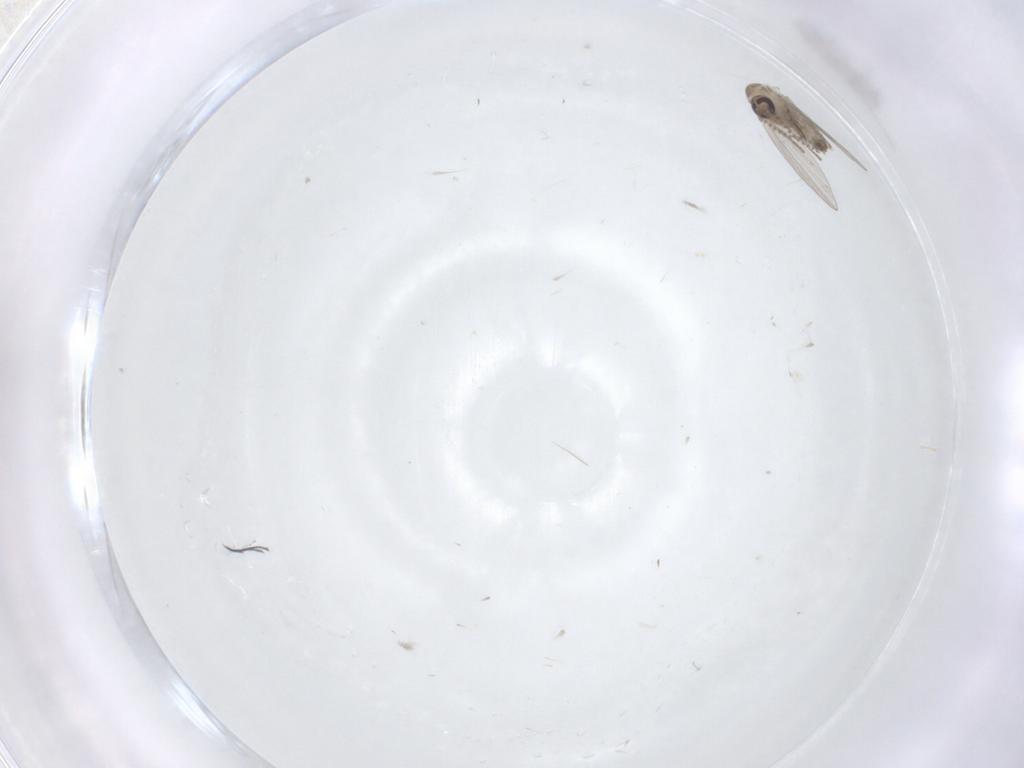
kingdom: Animalia
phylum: Arthropoda
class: Insecta
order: Diptera
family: Psychodidae
